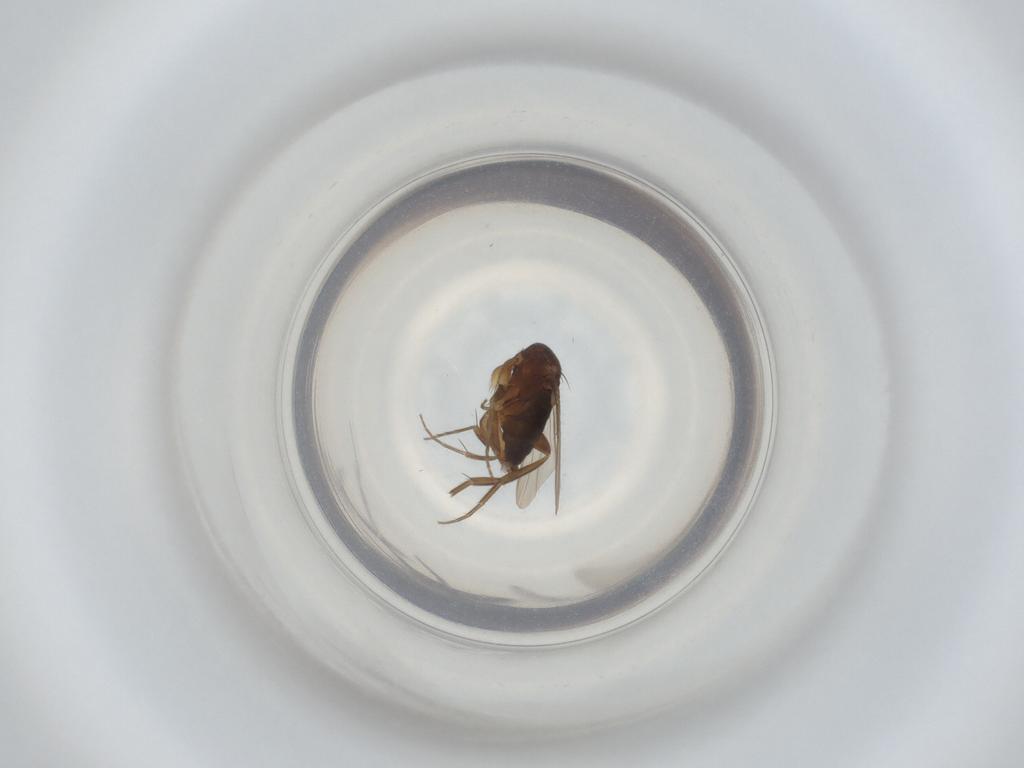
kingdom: Animalia
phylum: Arthropoda
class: Insecta
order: Diptera
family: Phoridae
